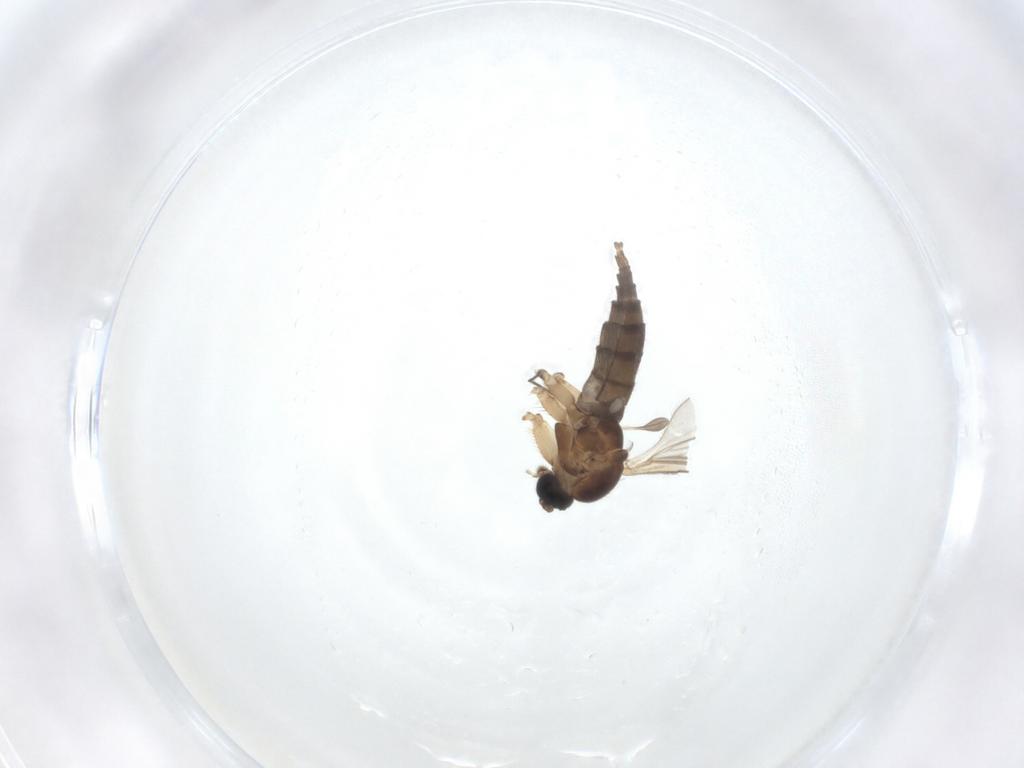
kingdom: Animalia
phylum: Arthropoda
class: Insecta
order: Diptera
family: Sciaridae
